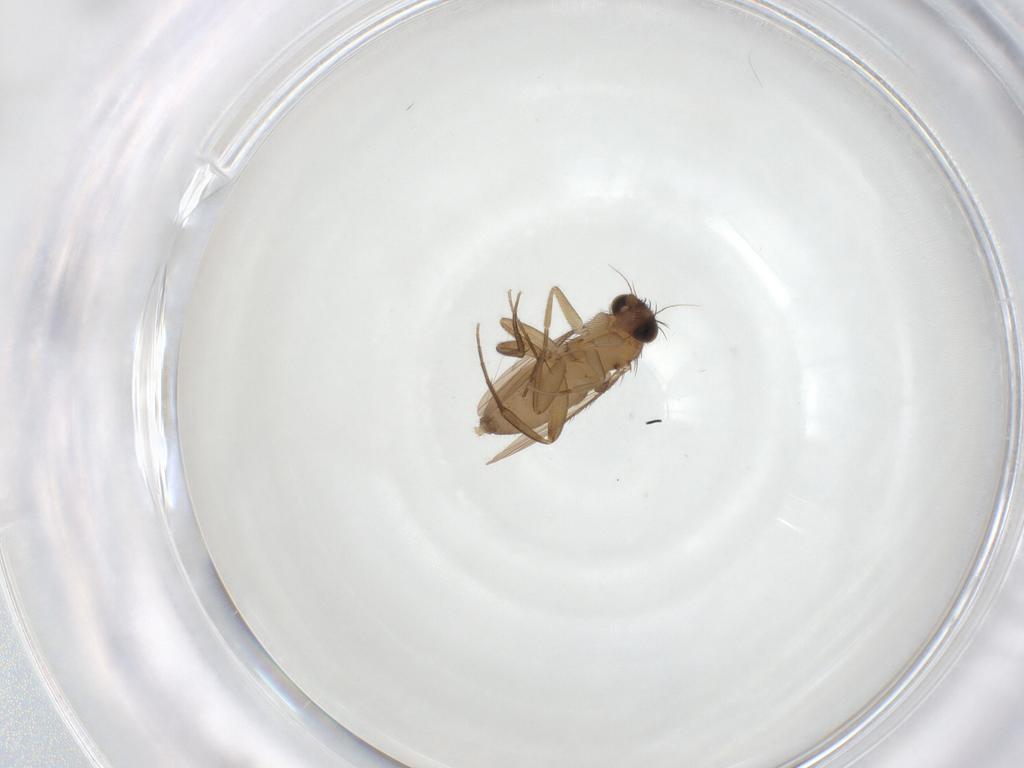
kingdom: Animalia
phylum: Arthropoda
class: Insecta
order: Diptera
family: Phoridae
